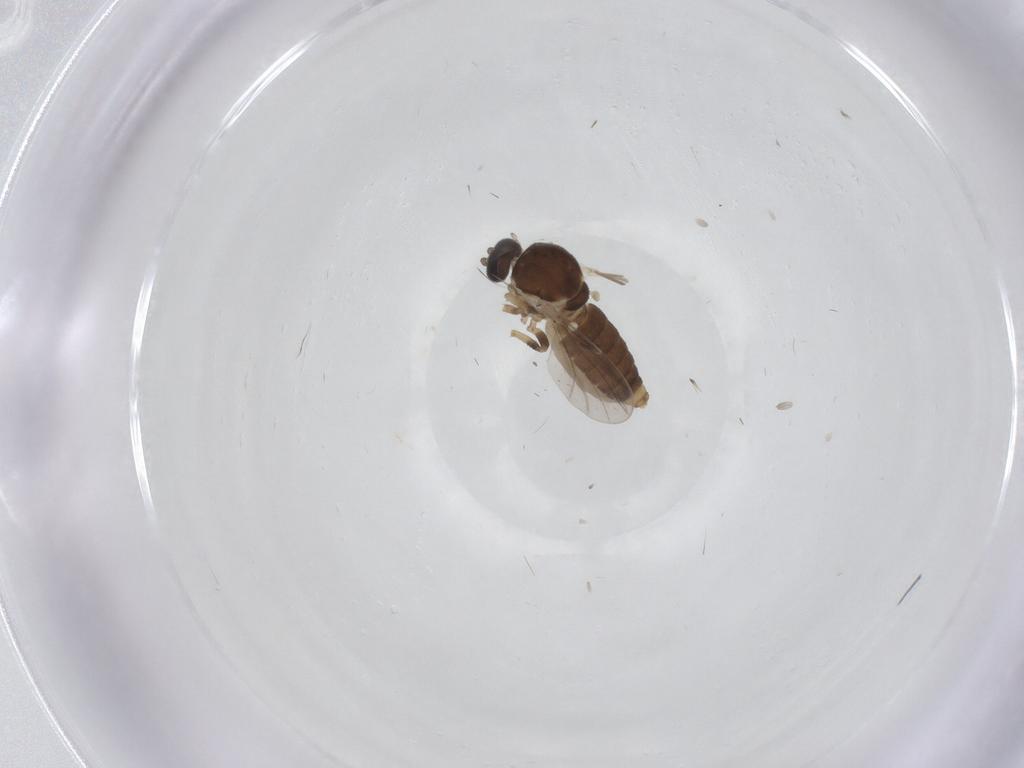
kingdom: Animalia
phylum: Arthropoda
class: Insecta
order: Diptera
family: Ceratopogonidae
